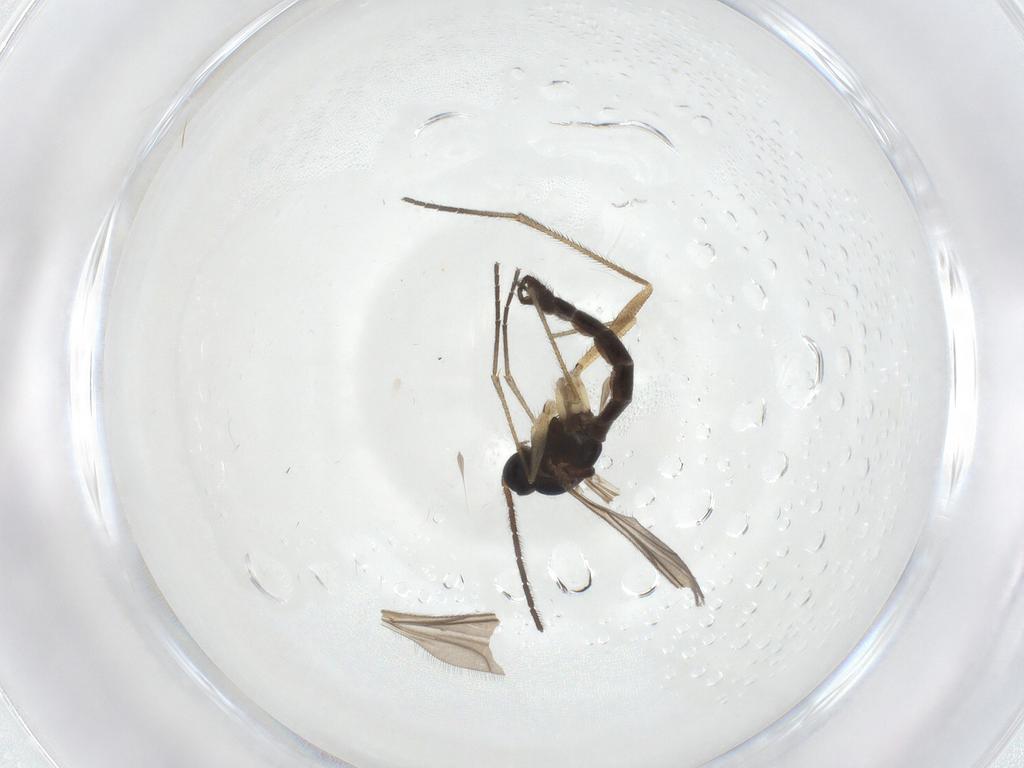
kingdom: Animalia
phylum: Arthropoda
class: Insecta
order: Diptera
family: Sciaridae
